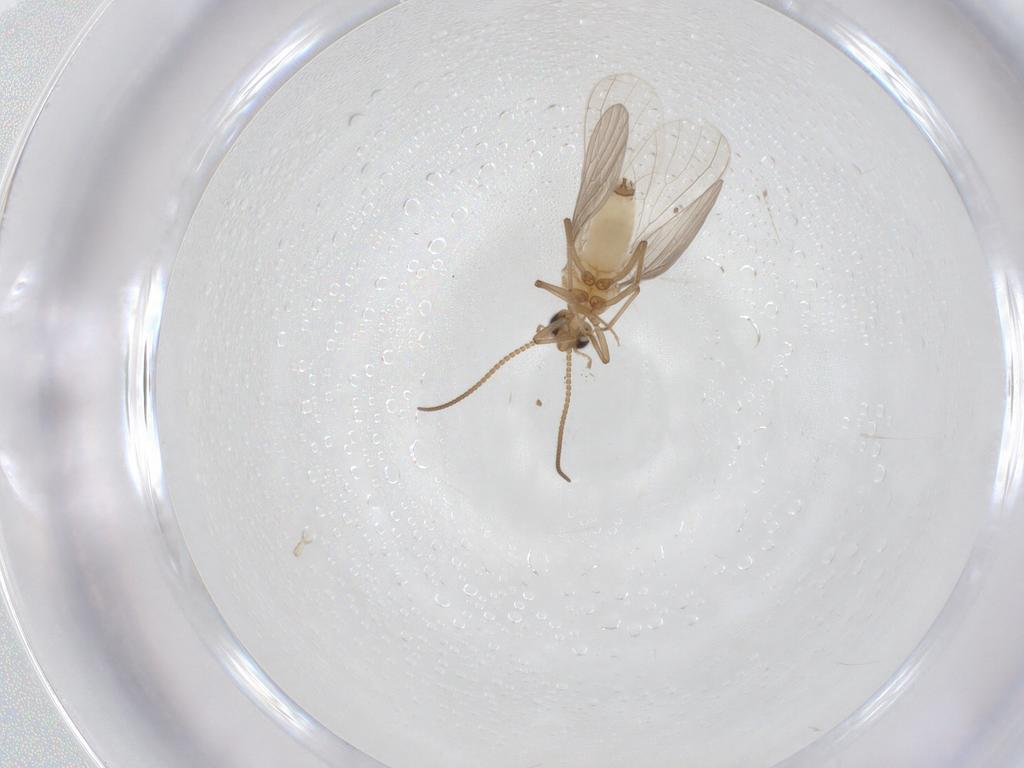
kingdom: Animalia
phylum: Arthropoda
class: Insecta
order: Neuroptera
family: Coniopterygidae
